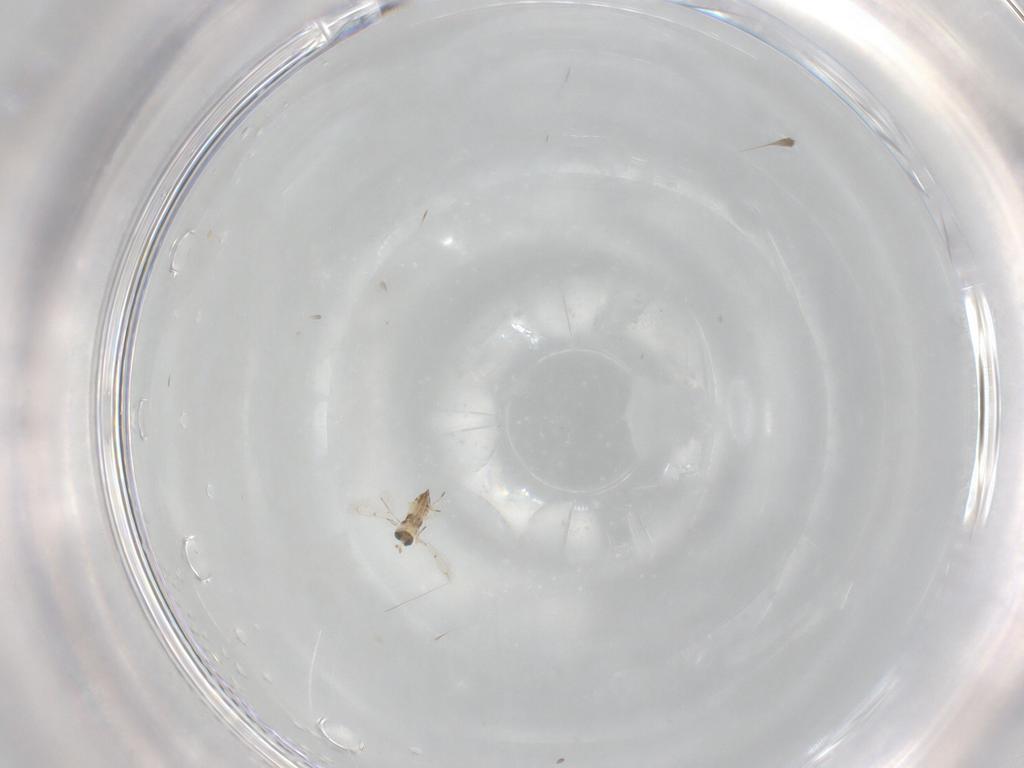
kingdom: Animalia
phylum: Arthropoda
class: Insecta
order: Hymenoptera
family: Trichogrammatidae
